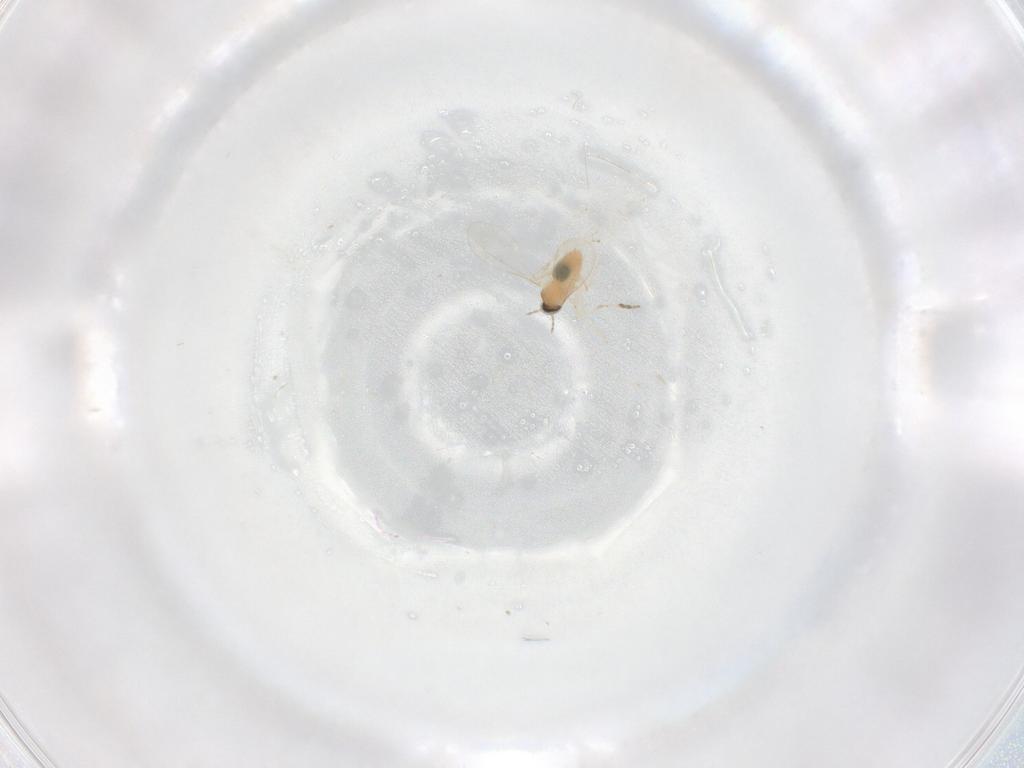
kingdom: Animalia
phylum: Arthropoda
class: Insecta
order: Diptera
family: Cecidomyiidae
